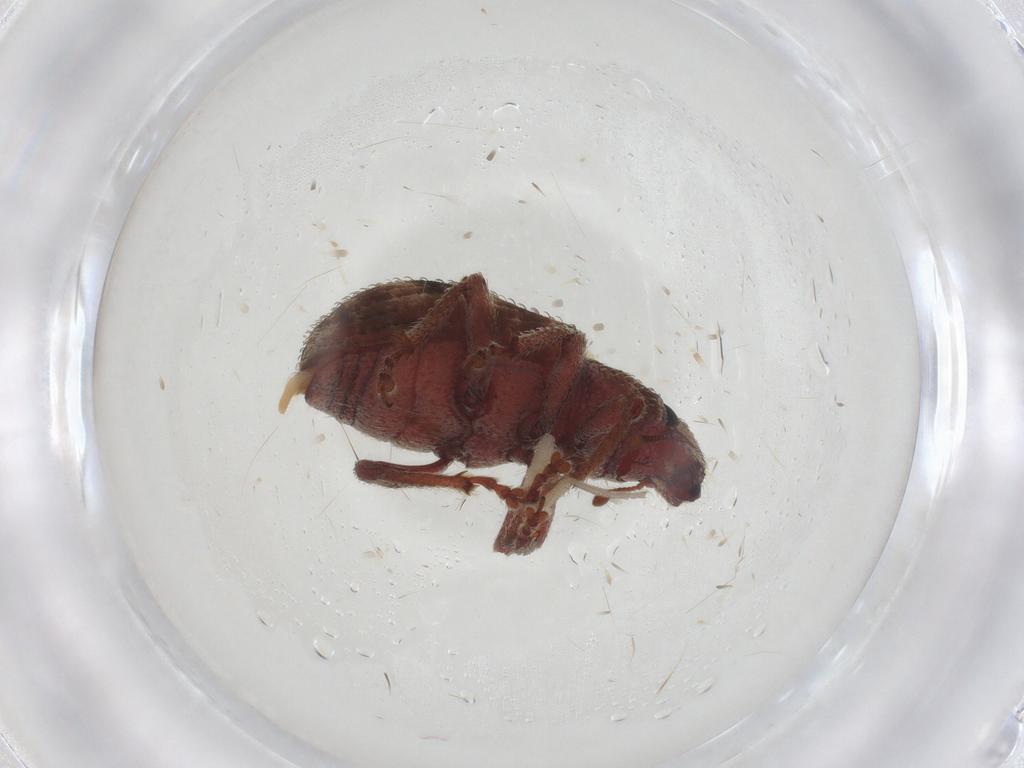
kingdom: Animalia
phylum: Arthropoda
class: Insecta
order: Coleoptera
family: Curculionidae
